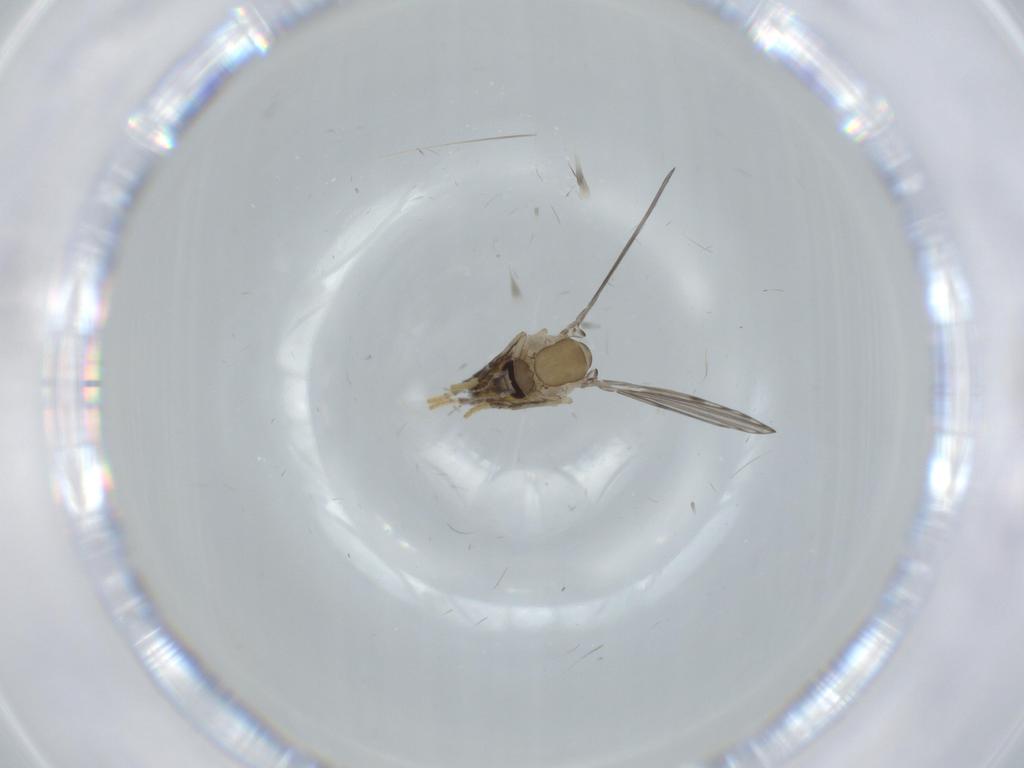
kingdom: Animalia
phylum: Arthropoda
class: Insecta
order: Diptera
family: Psychodidae
